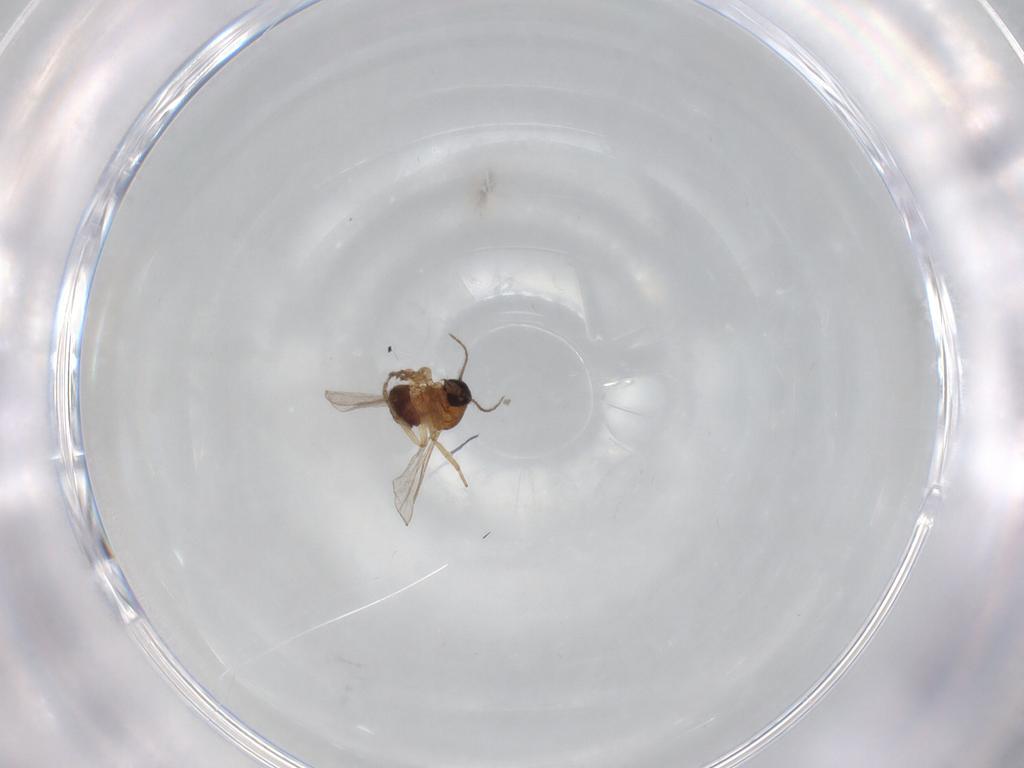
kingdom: Animalia
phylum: Arthropoda
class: Insecta
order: Diptera
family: Ceratopogonidae
